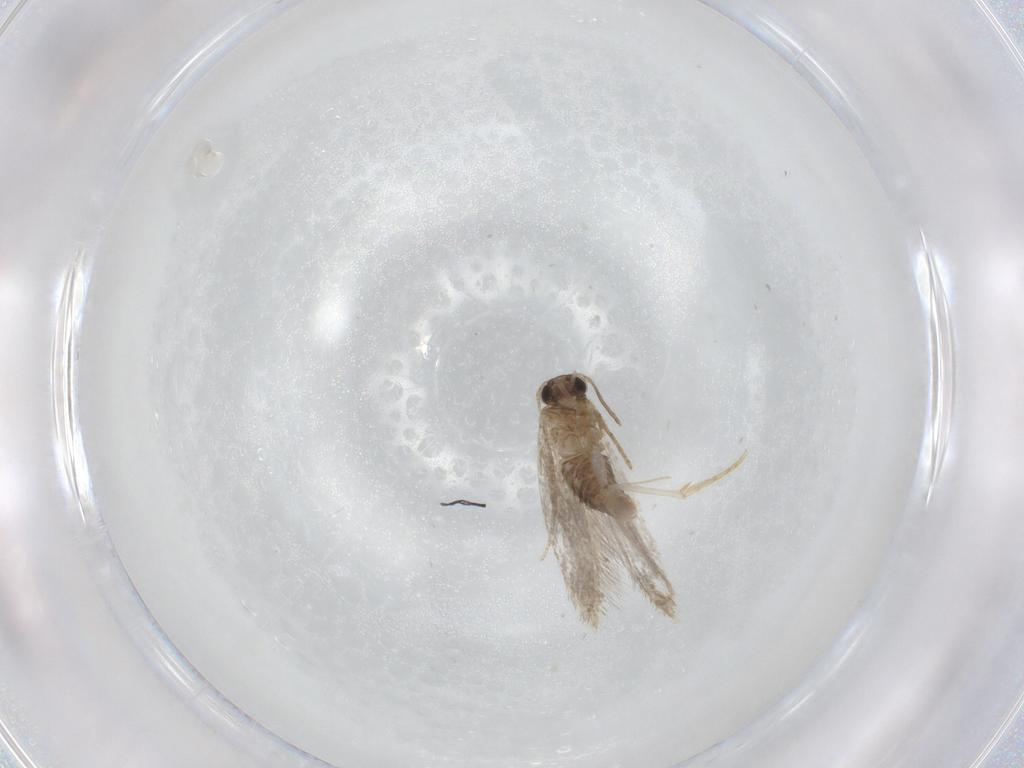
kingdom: Animalia
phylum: Arthropoda
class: Insecta
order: Lepidoptera
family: Tineidae
